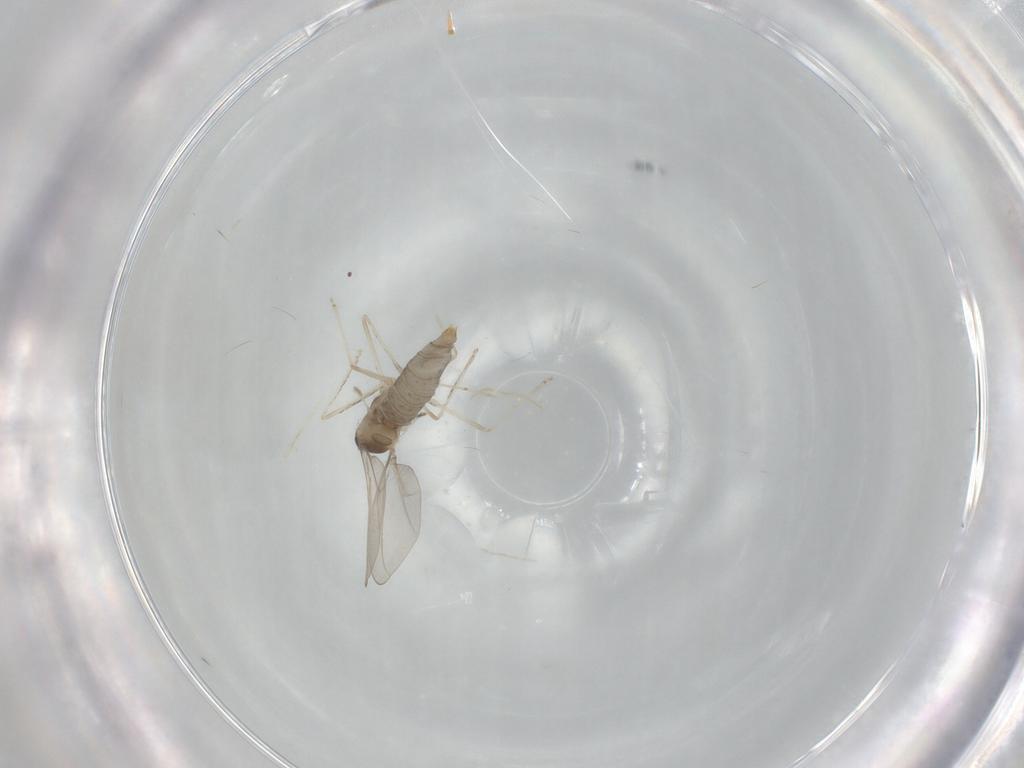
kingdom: Animalia
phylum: Arthropoda
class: Insecta
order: Diptera
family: Cecidomyiidae
